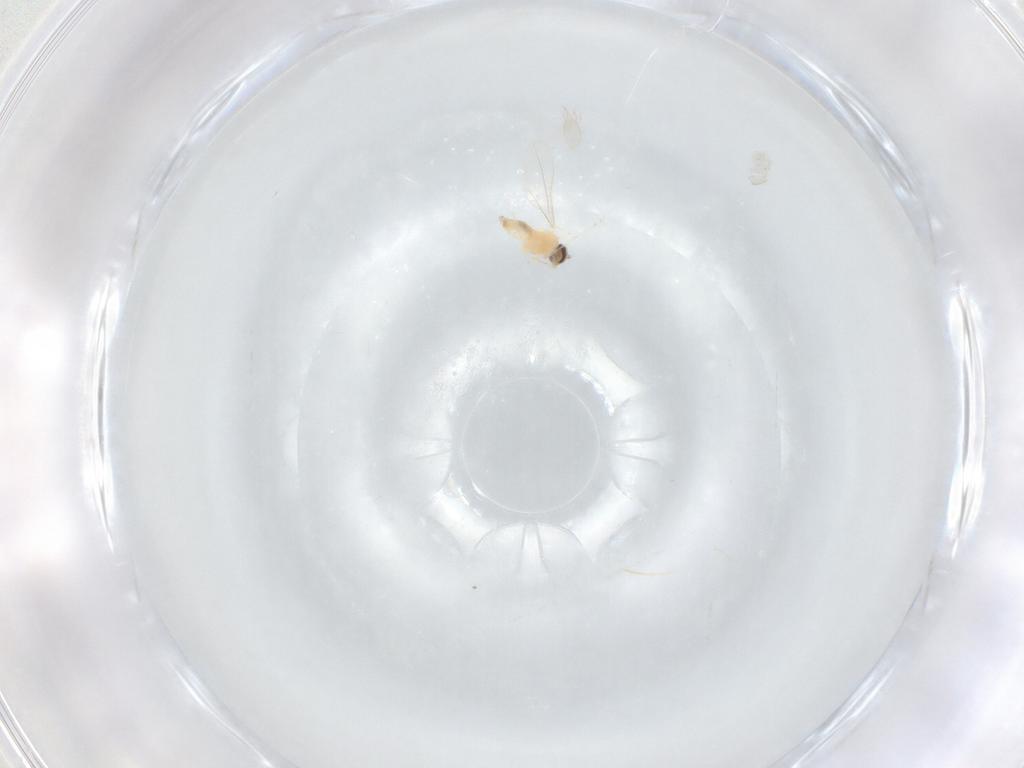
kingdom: Animalia
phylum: Arthropoda
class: Insecta
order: Diptera
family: Cecidomyiidae
